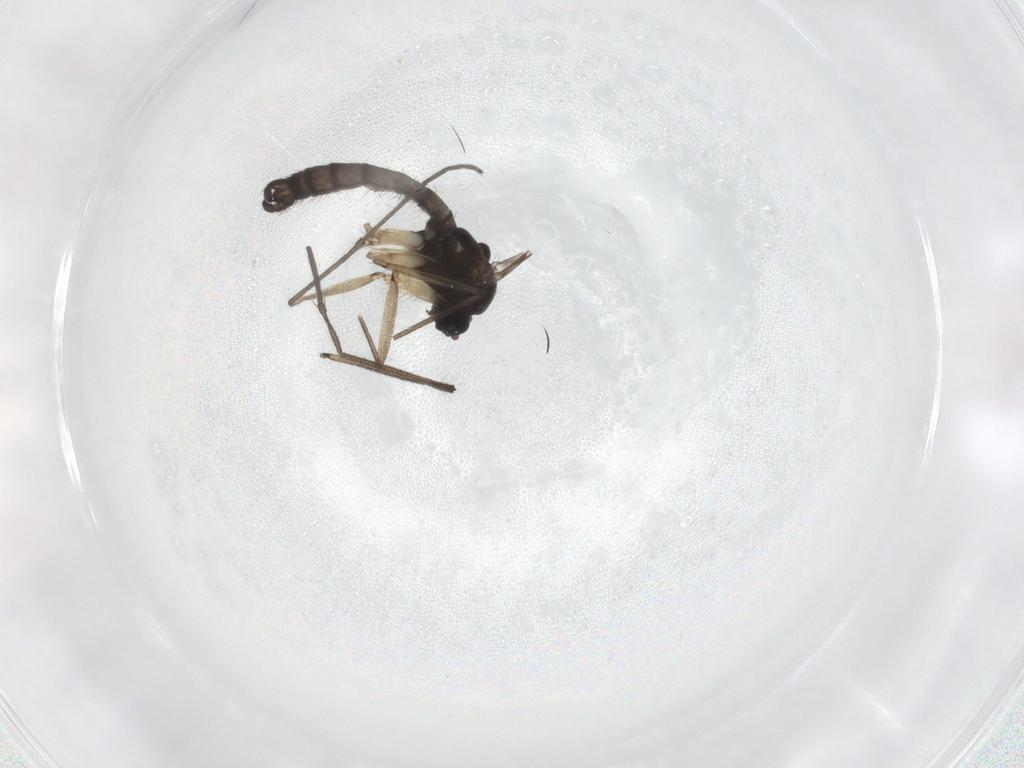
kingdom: Animalia
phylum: Arthropoda
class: Insecta
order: Diptera
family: Sciaridae
